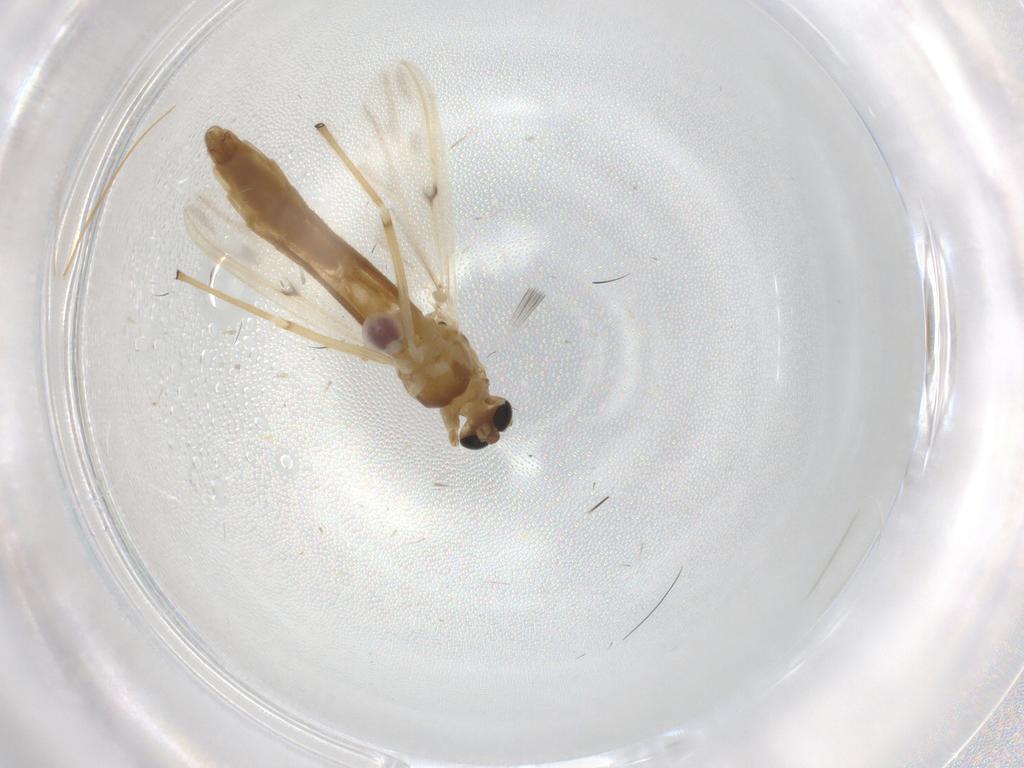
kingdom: Animalia
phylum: Arthropoda
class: Insecta
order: Diptera
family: Chironomidae
